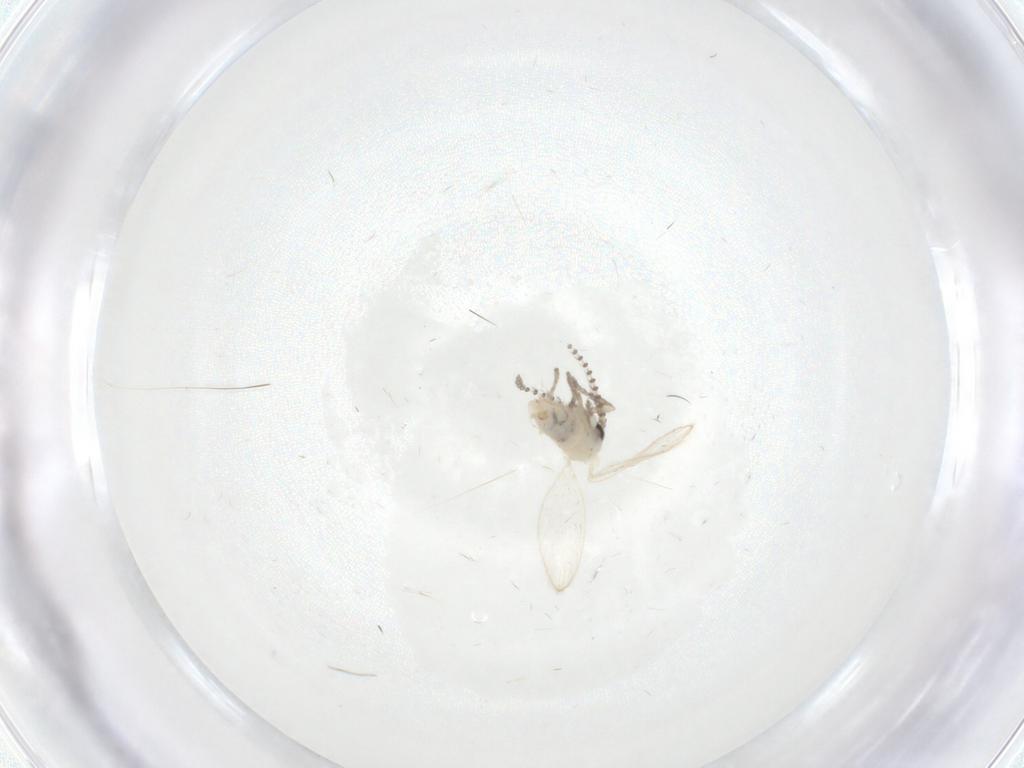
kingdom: Animalia
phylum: Arthropoda
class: Insecta
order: Diptera
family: Psychodidae
